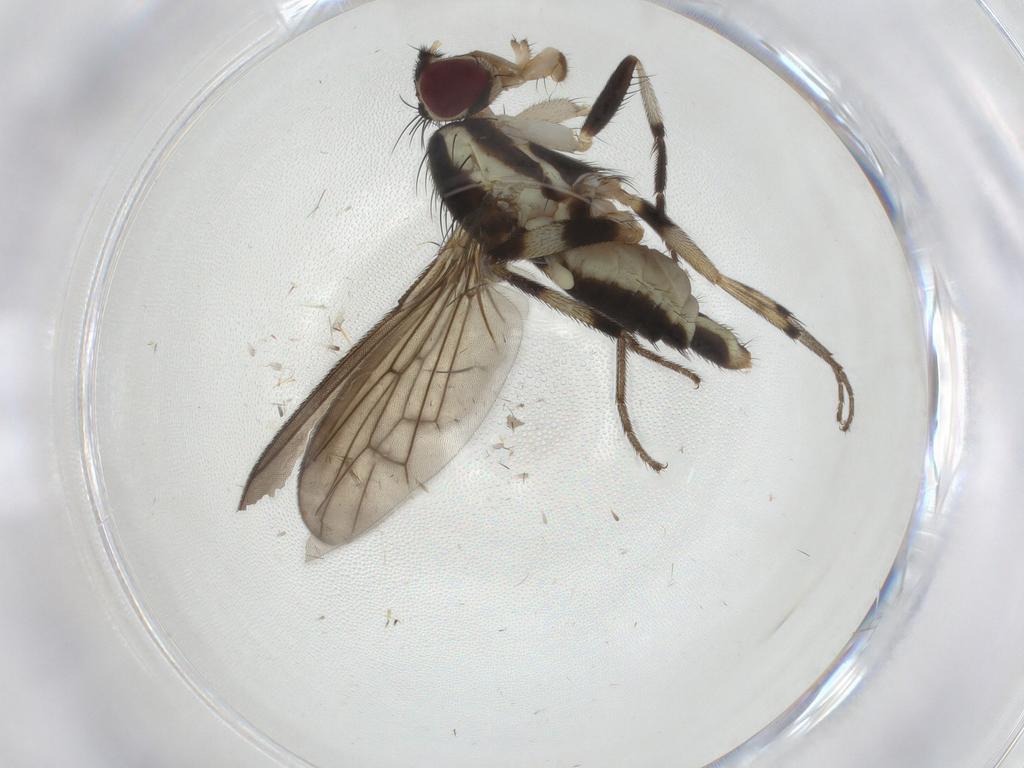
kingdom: Animalia
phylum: Arthropoda
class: Insecta
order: Diptera
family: Pseudopomyzidae
